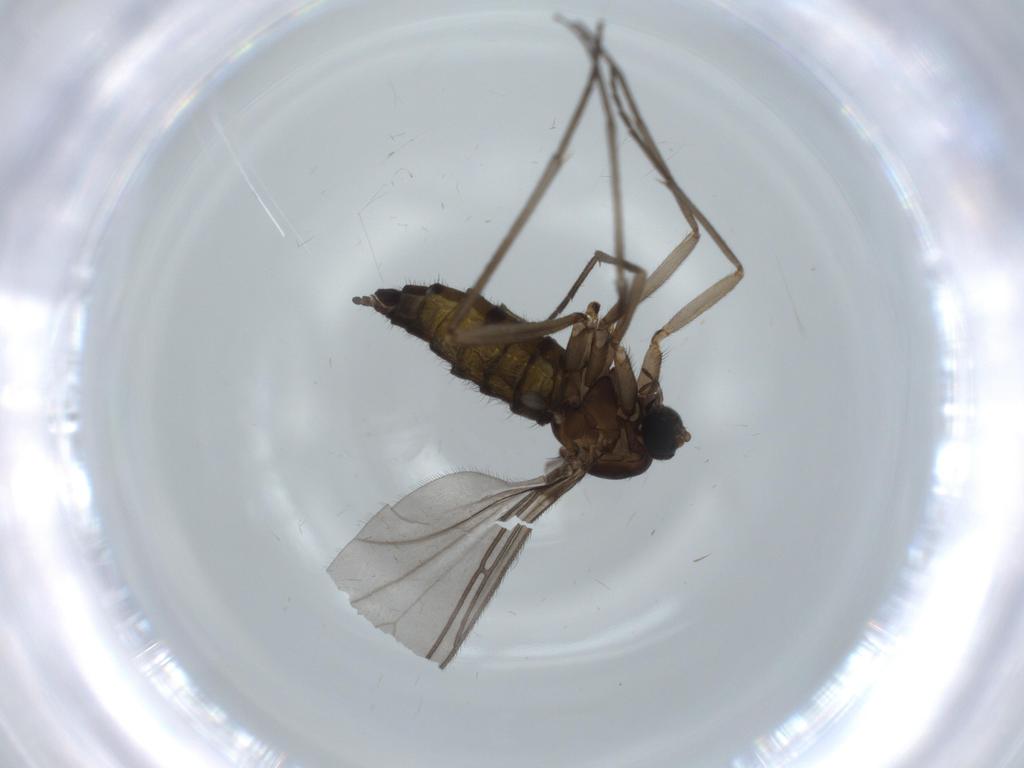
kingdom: Animalia
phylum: Arthropoda
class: Insecta
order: Diptera
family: Sciaridae
